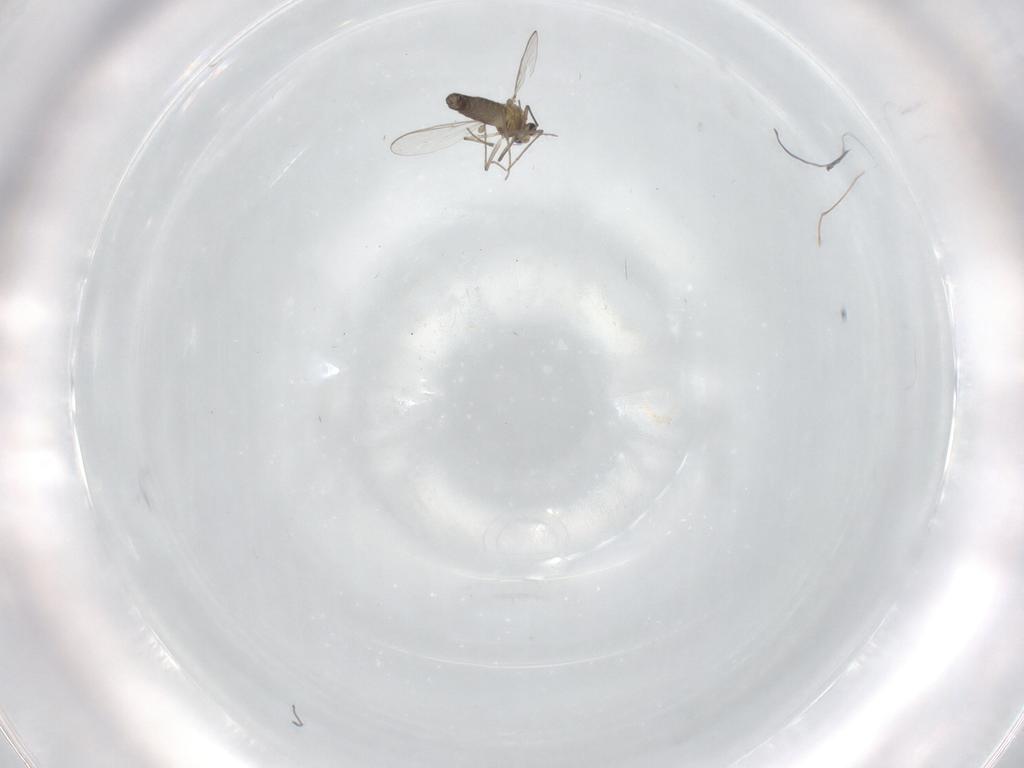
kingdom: Animalia
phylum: Arthropoda
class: Insecta
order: Diptera
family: Chironomidae
